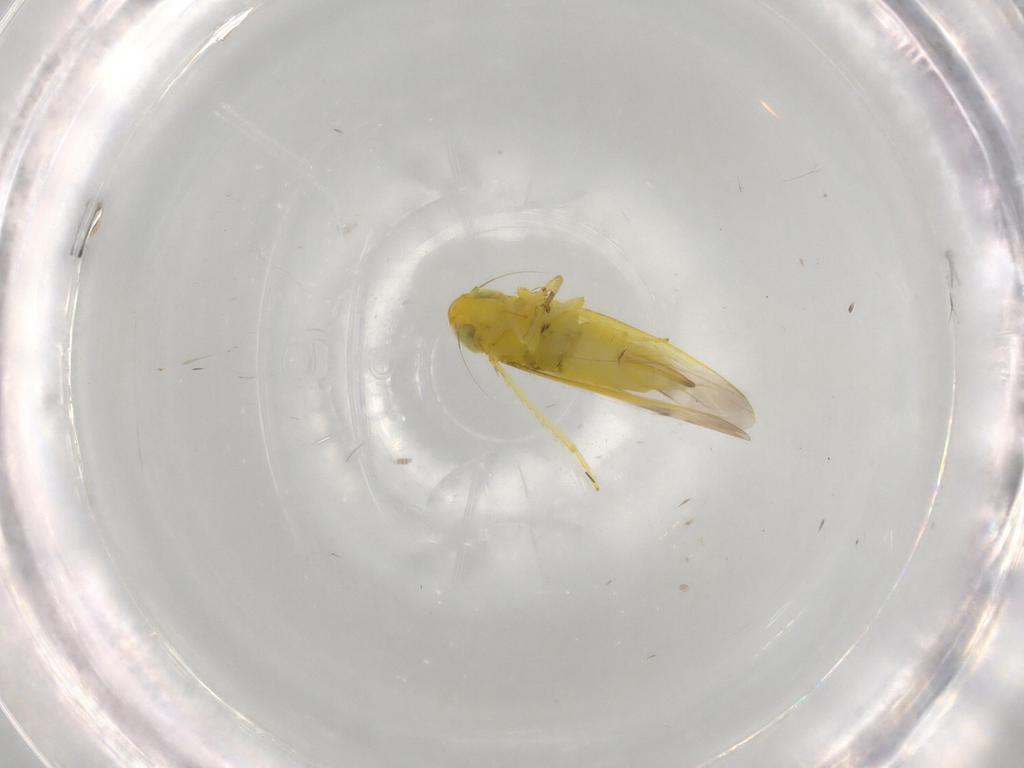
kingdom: Animalia
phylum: Arthropoda
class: Insecta
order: Hemiptera
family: Cicadellidae
